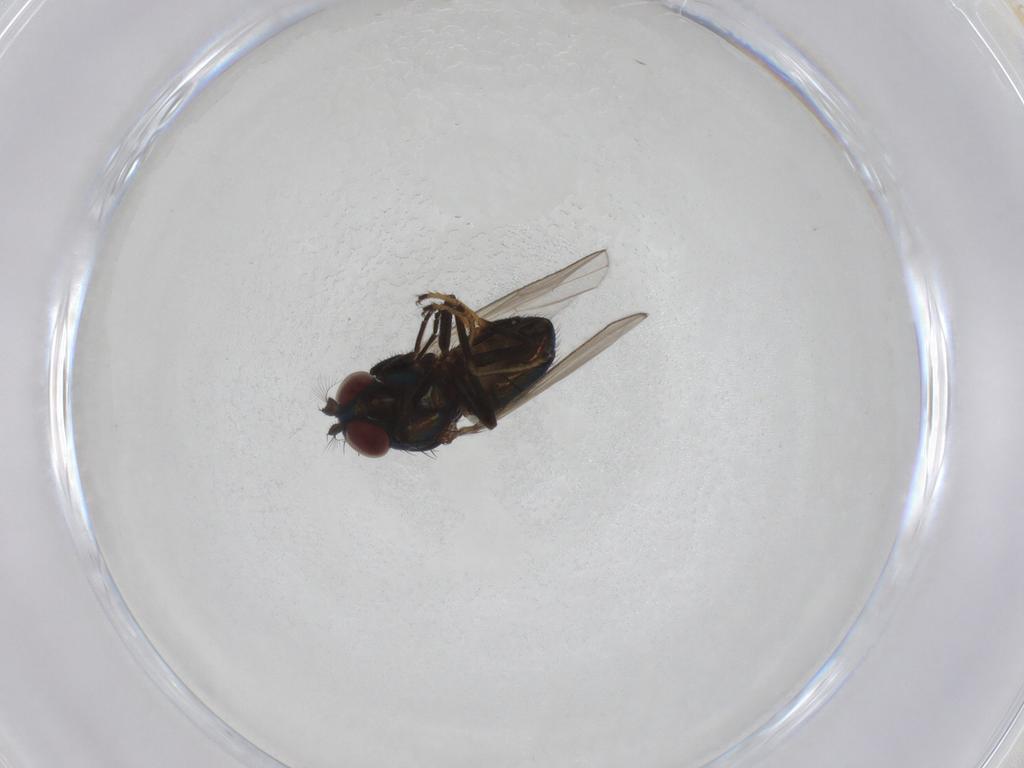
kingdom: Animalia
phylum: Arthropoda
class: Insecta
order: Diptera
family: Ephydridae
